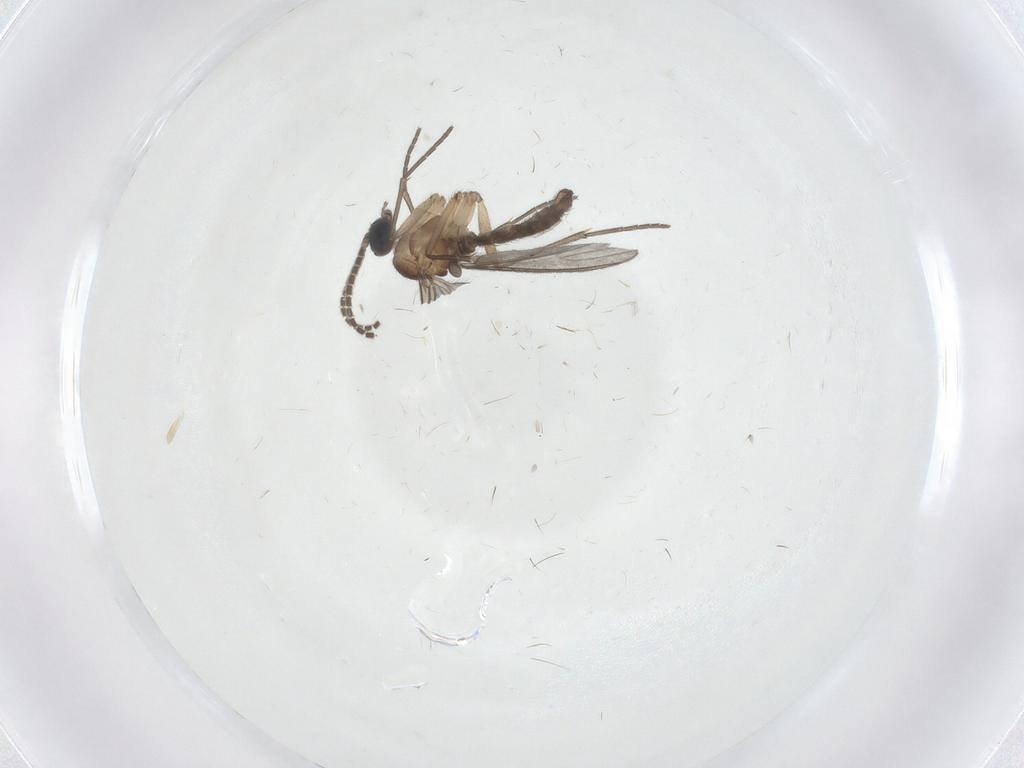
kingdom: Animalia
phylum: Arthropoda
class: Insecta
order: Diptera
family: Sciaridae
